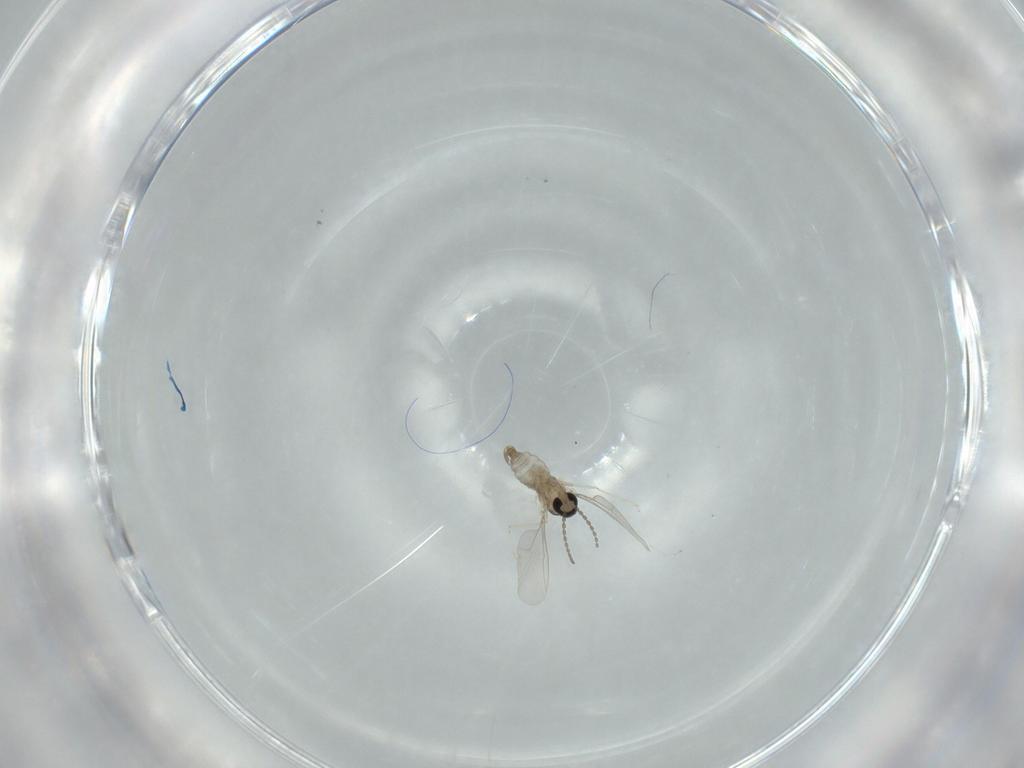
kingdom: Animalia
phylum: Arthropoda
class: Insecta
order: Diptera
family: Cecidomyiidae
